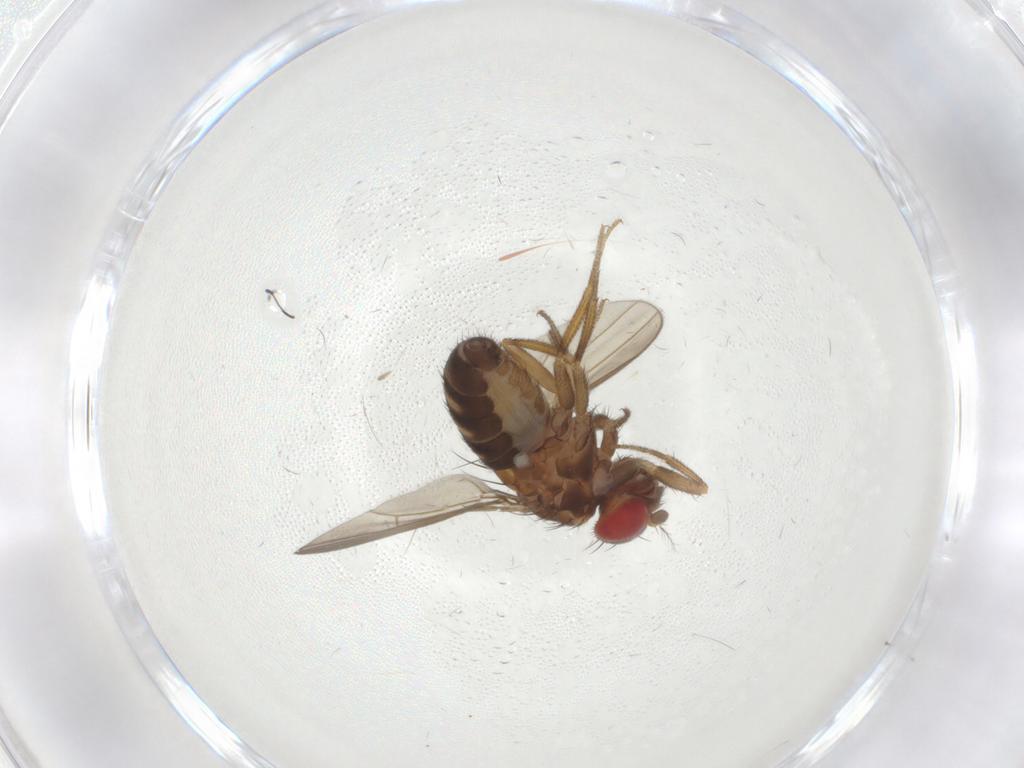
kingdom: Animalia
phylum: Arthropoda
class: Insecta
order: Diptera
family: Drosophilidae
